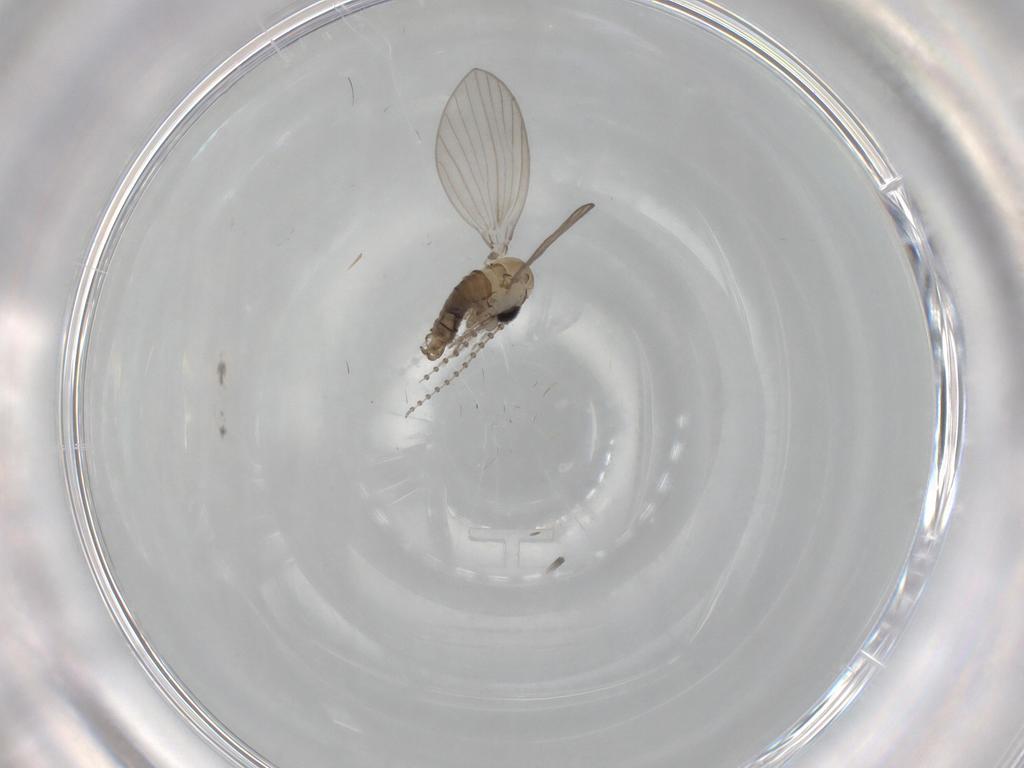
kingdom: Animalia
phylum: Arthropoda
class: Insecta
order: Diptera
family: Psychodidae
